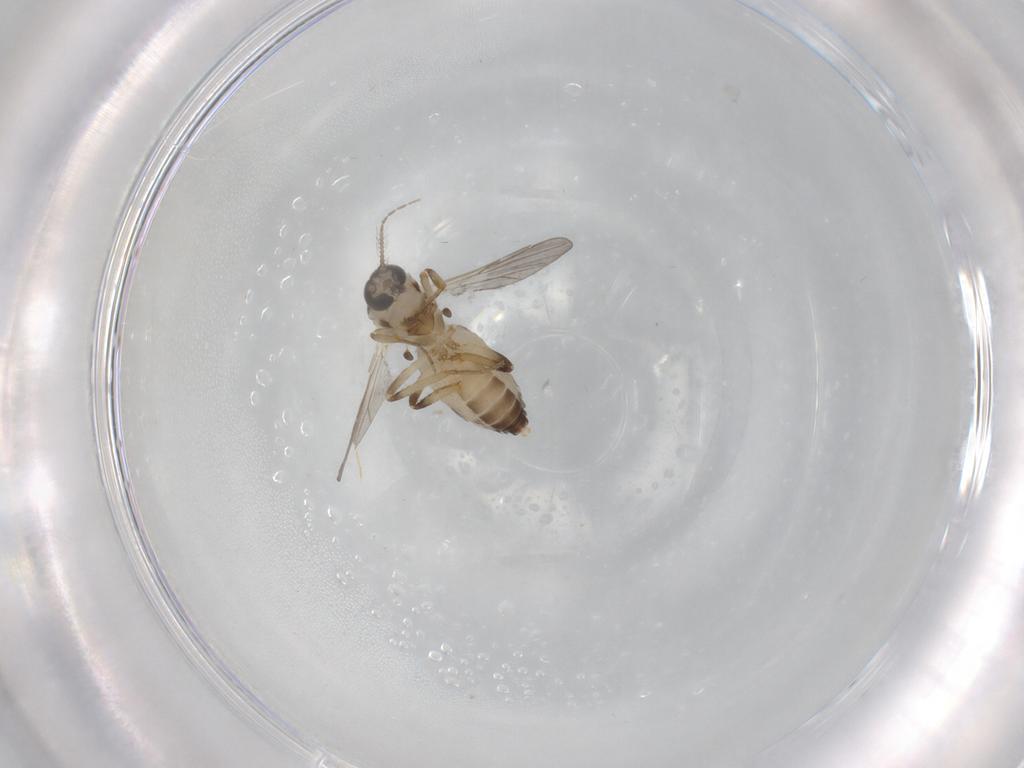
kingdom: Animalia
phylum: Arthropoda
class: Insecta
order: Diptera
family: Ceratopogonidae
